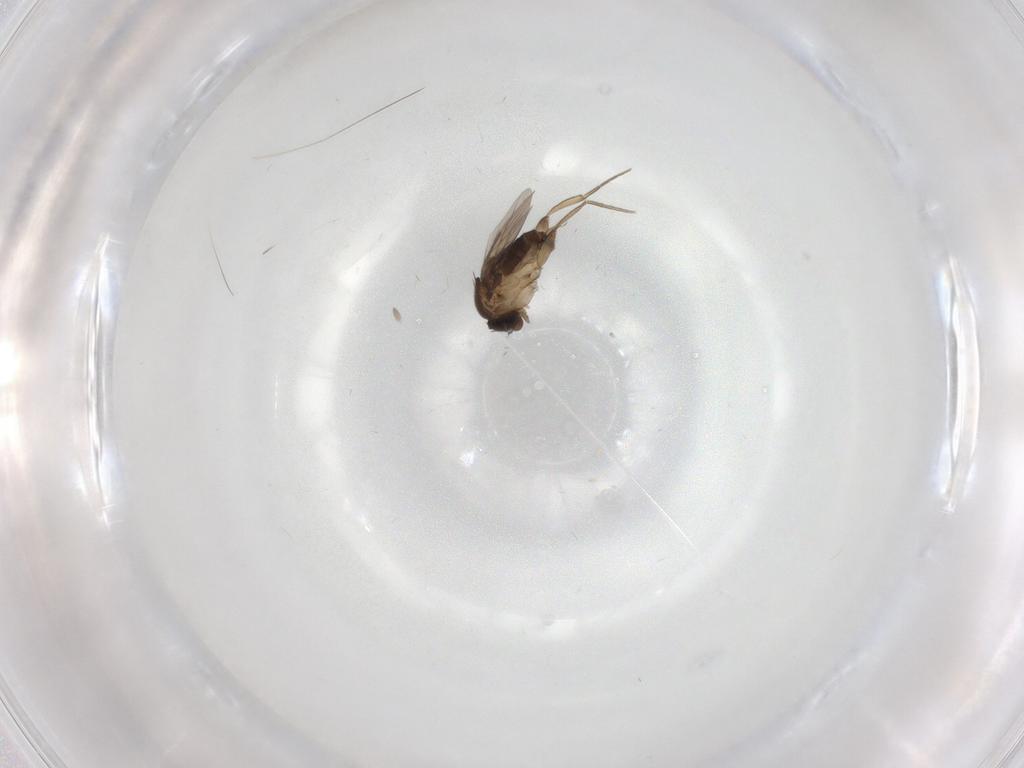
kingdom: Animalia
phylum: Arthropoda
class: Insecta
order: Diptera
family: Phoridae
